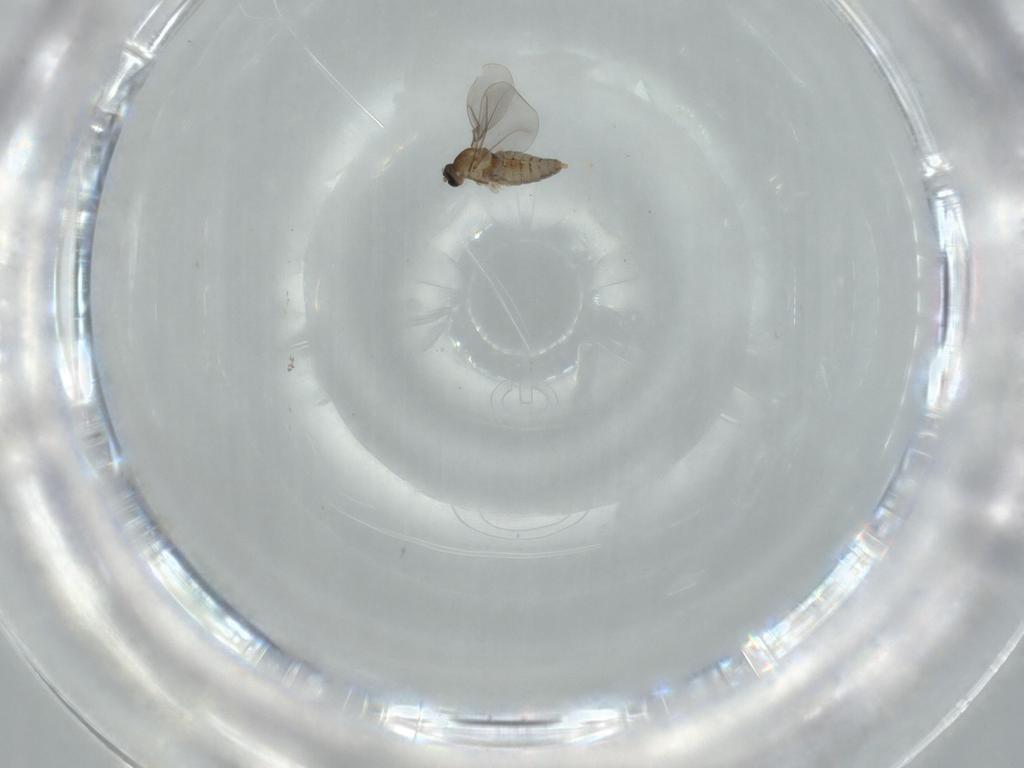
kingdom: Animalia
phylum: Arthropoda
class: Insecta
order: Diptera
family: Cecidomyiidae
